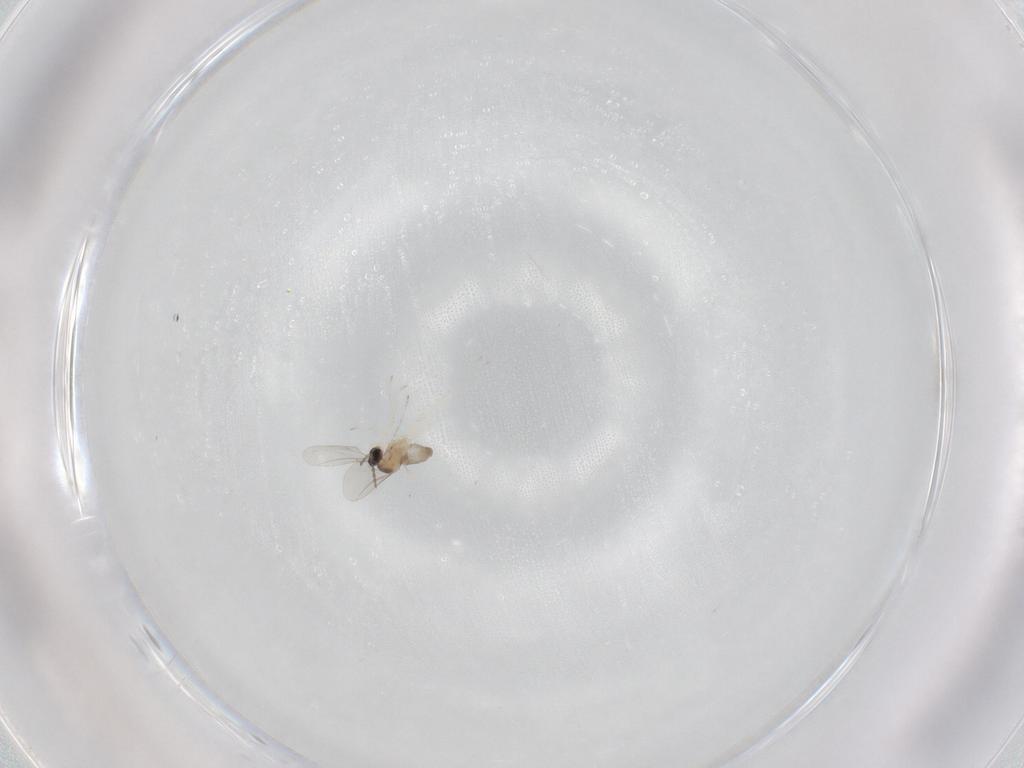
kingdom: Animalia
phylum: Arthropoda
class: Insecta
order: Diptera
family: Cecidomyiidae
